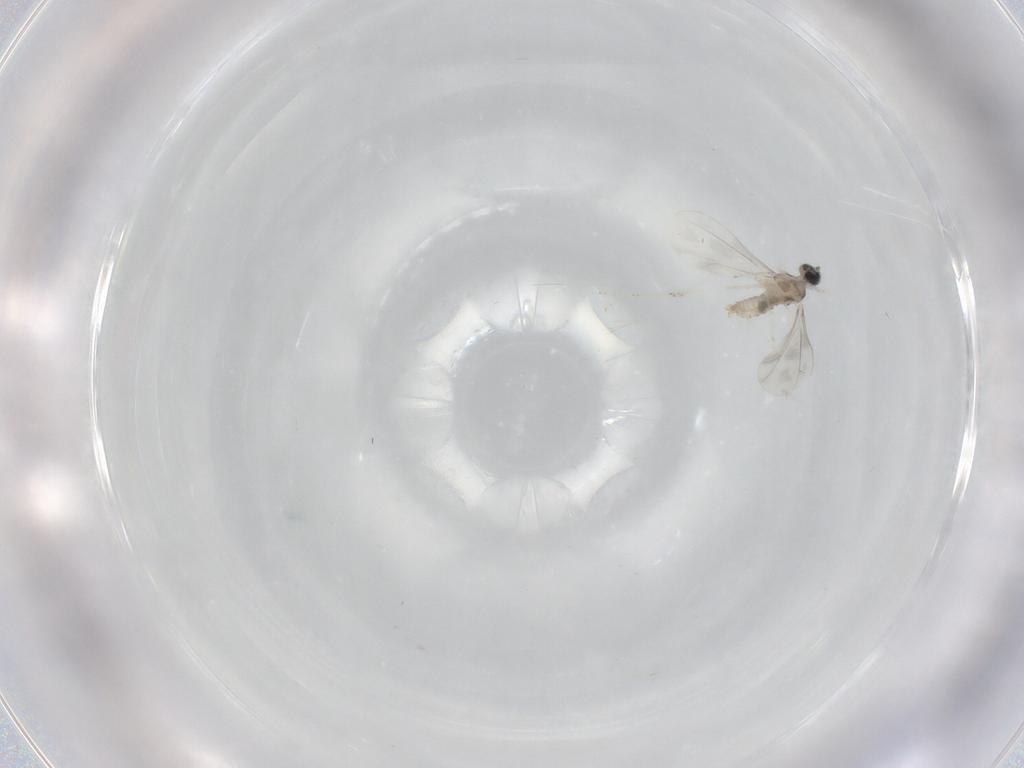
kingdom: Animalia
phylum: Arthropoda
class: Insecta
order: Diptera
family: Cecidomyiidae
